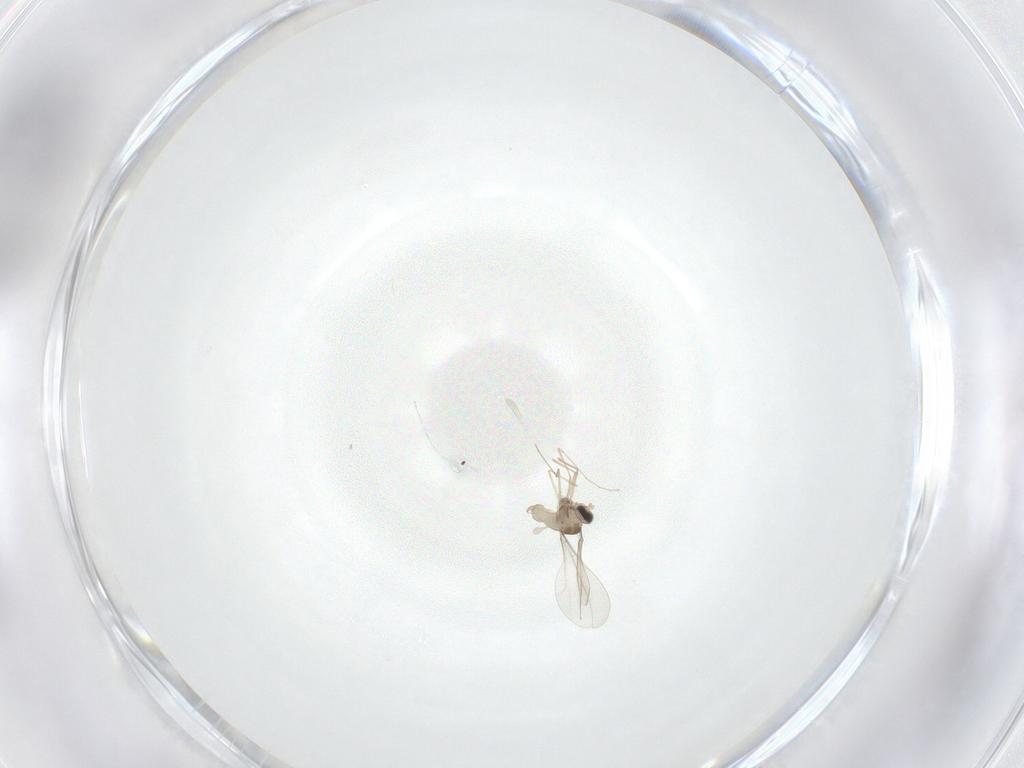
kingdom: Animalia
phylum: Arthropoda
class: Insecta
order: Diptera
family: Cecidomyiidae
